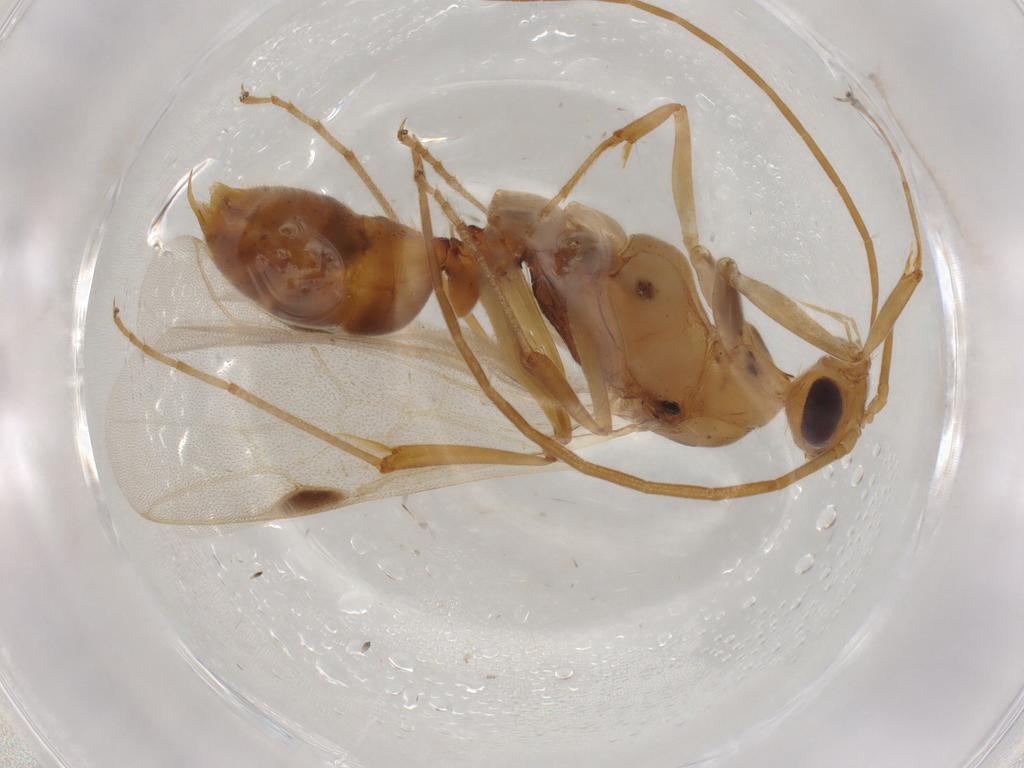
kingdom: Animalia
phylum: Arthropoda
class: Insecta
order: Hymenoptera
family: Formicidae
